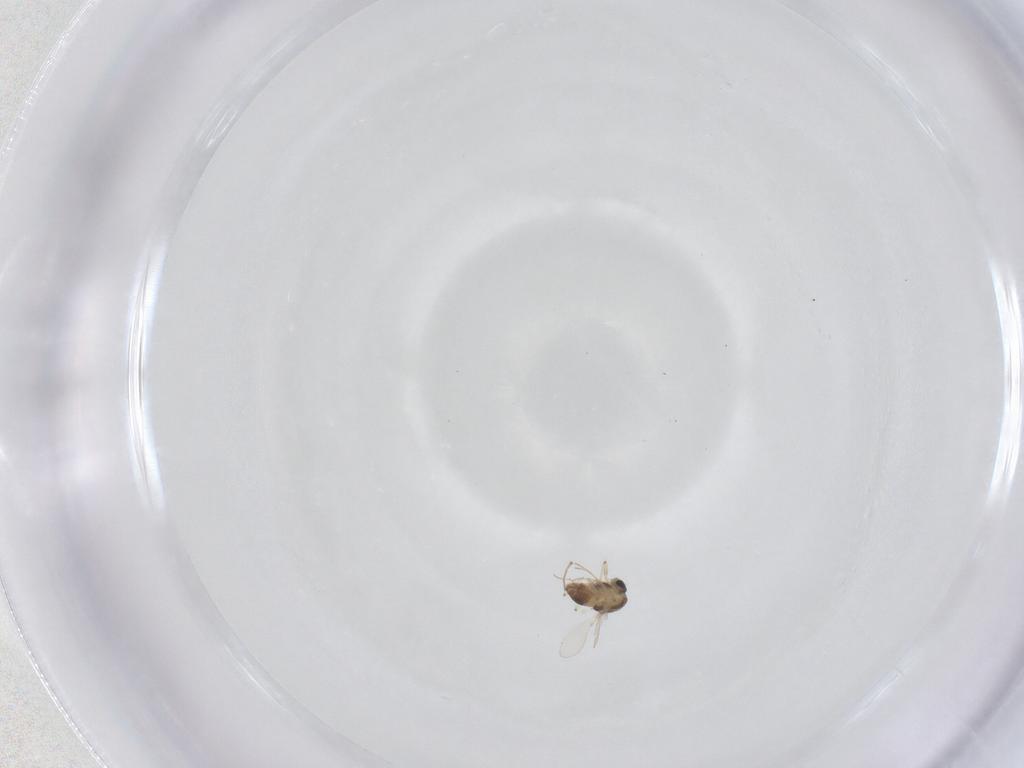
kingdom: Animalia
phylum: Arthropoda
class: Insecta
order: Diptera
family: Chironomidae
